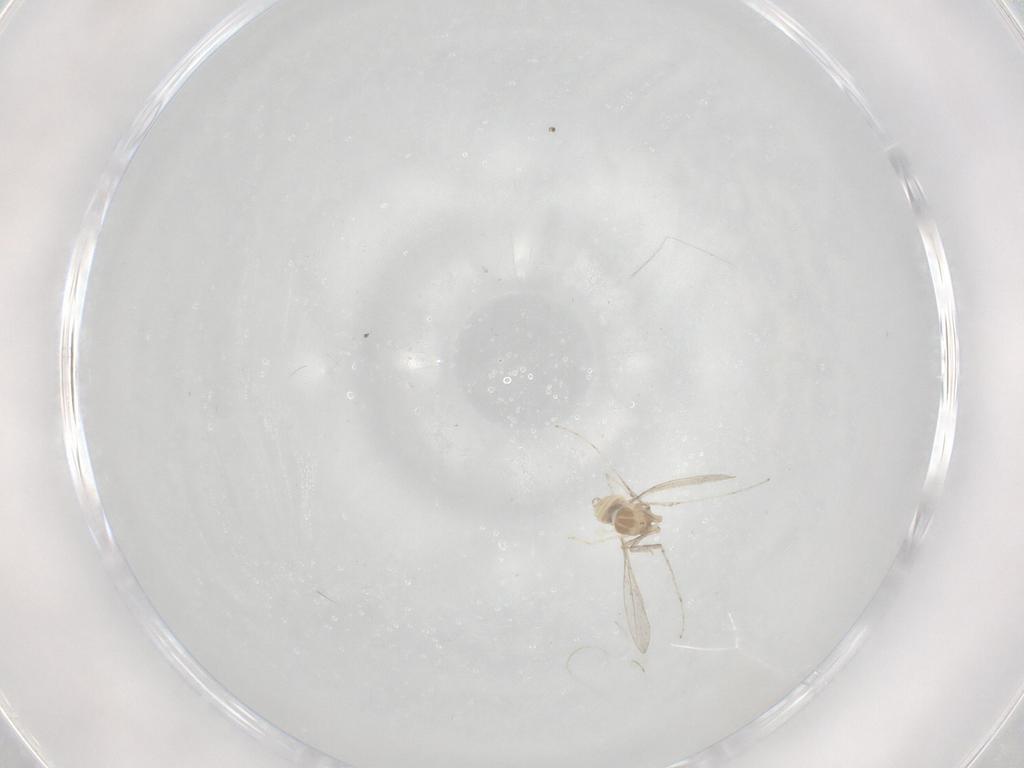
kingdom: Animalia
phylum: Arthropoda
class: Insecta
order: Diptera
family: Cecidomyiidae
